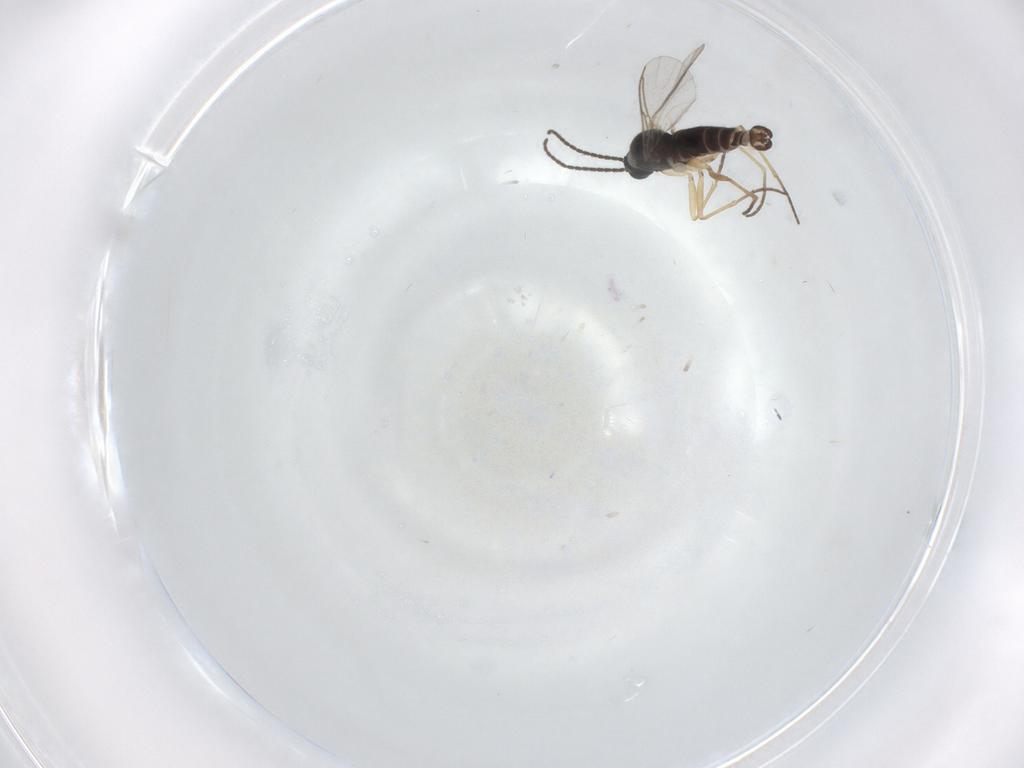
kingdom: Animalia
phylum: Arthropoda
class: Insecta
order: Diptera
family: Sciaridae
